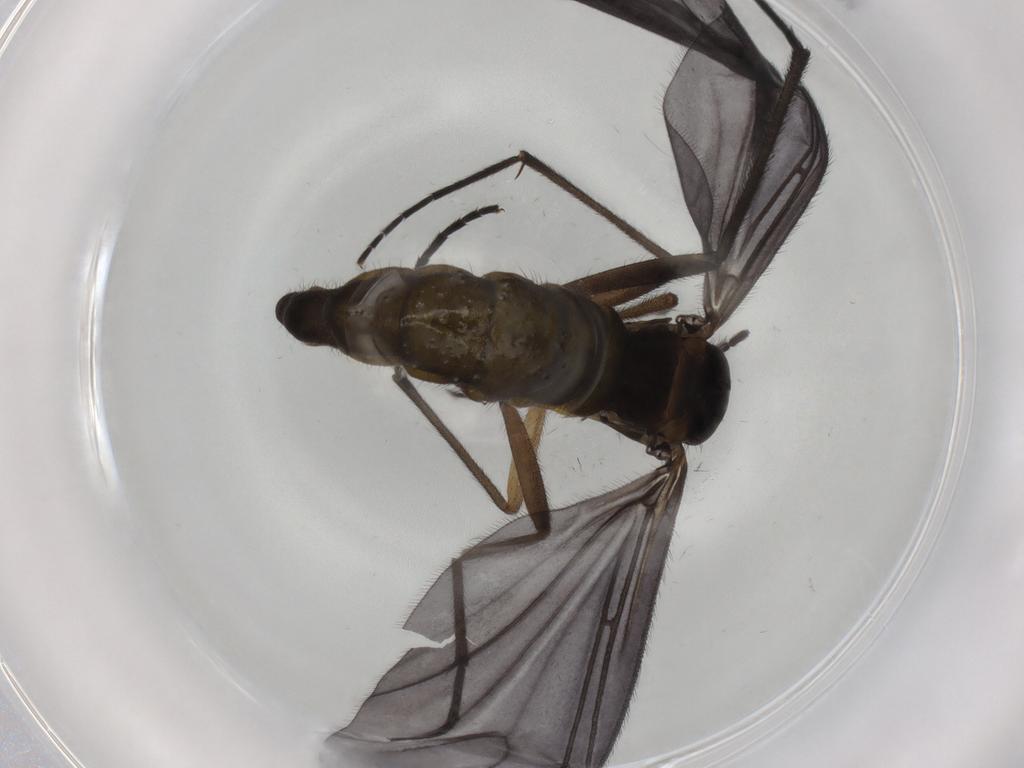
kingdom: Animalia
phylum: Arthropoda
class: Insecta
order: Diptera
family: Sciaridae
